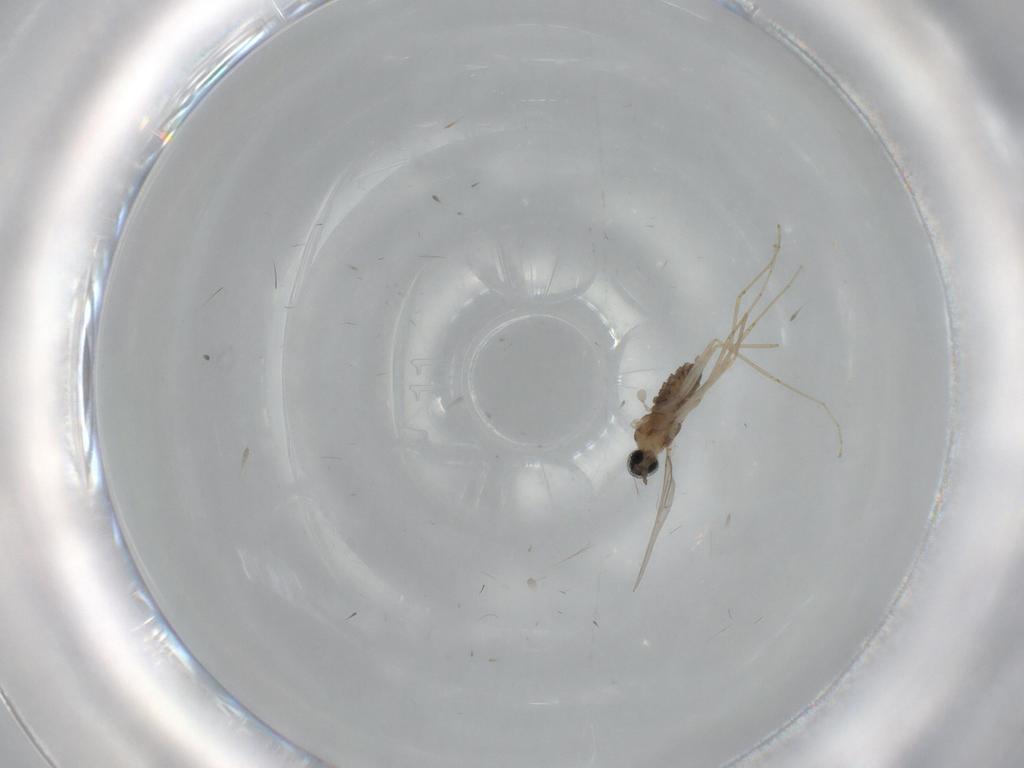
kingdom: Animalia
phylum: Arthropoda
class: Insecta
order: Diptera
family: Cecidomyiidae
